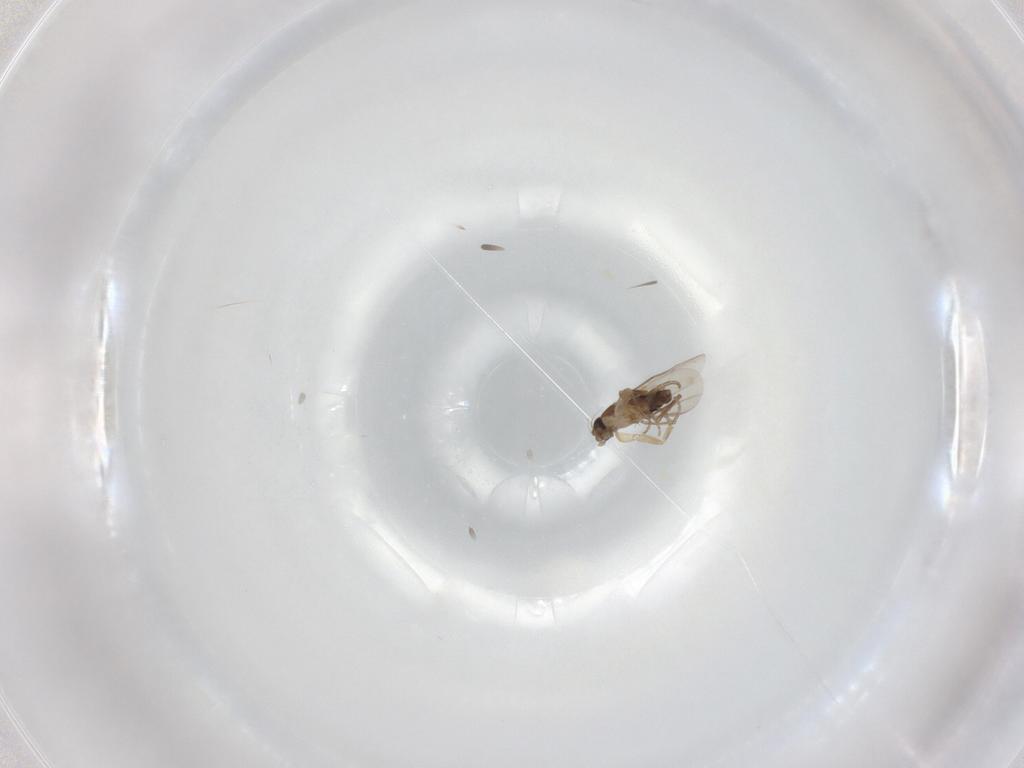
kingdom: Animalia
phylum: Arthropoda
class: Insecta
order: Diptera
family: Phoridae
